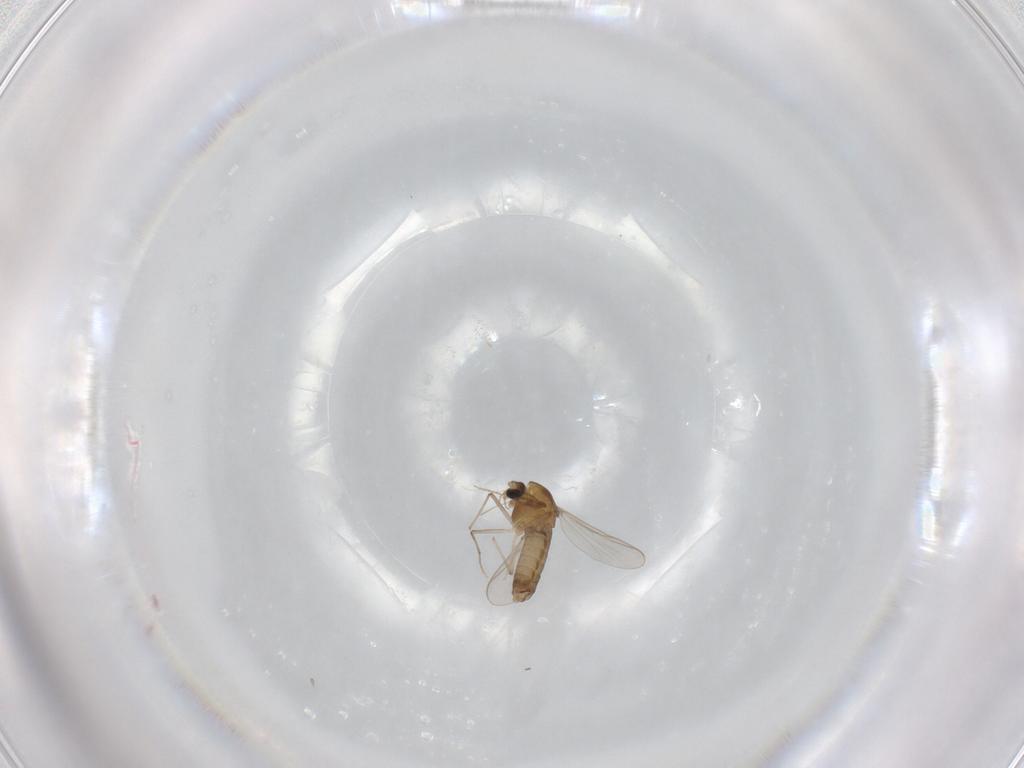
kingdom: Animalia
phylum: Arthropoda
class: Insecta
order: Diptera
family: Chironomidae
